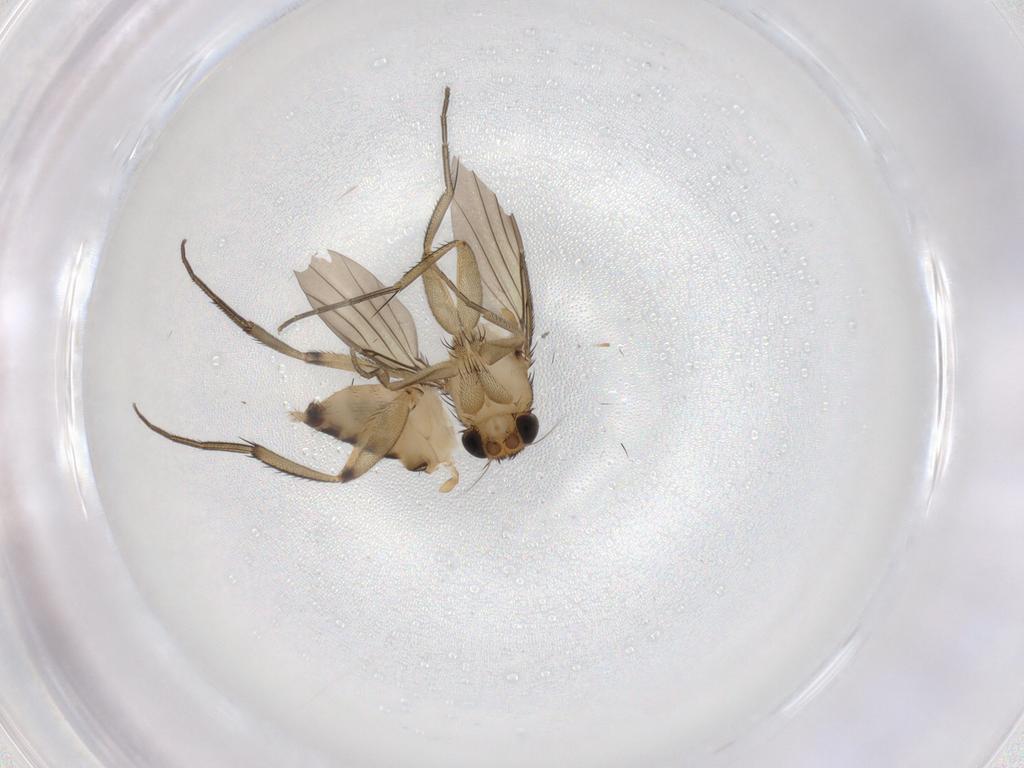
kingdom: Animalia
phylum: Arthropoda
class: Insecta
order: Diptera
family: Phoridae
